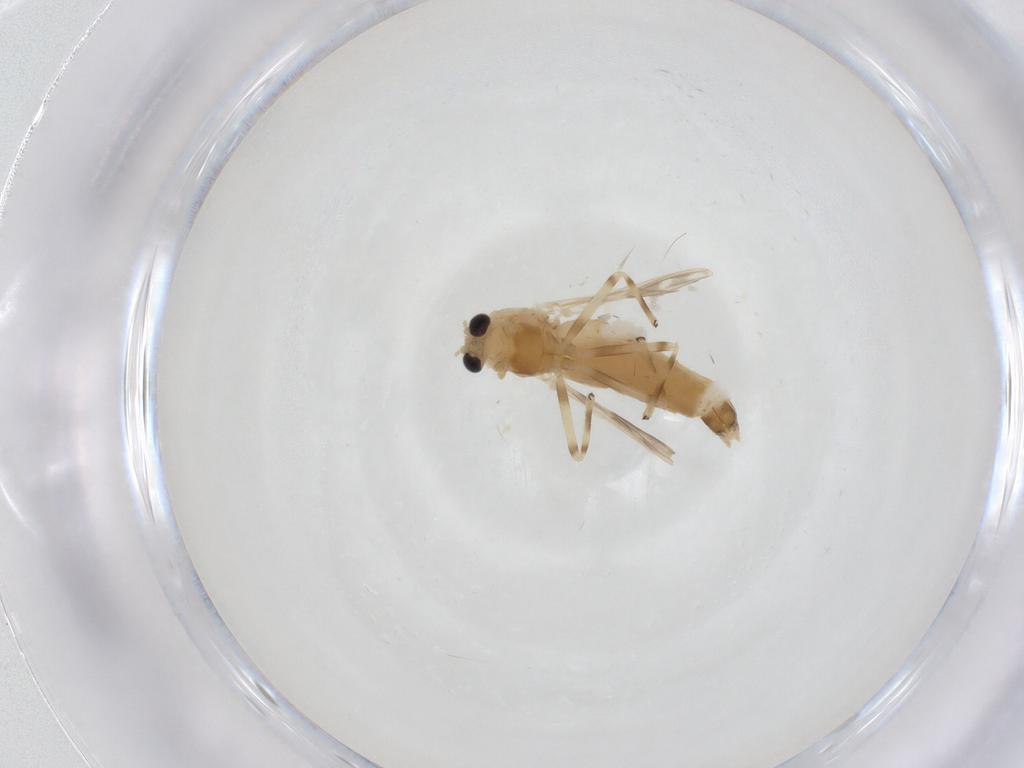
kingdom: Animalia
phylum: Arthropoda
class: Insecta
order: Diptera
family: Chironomidae
